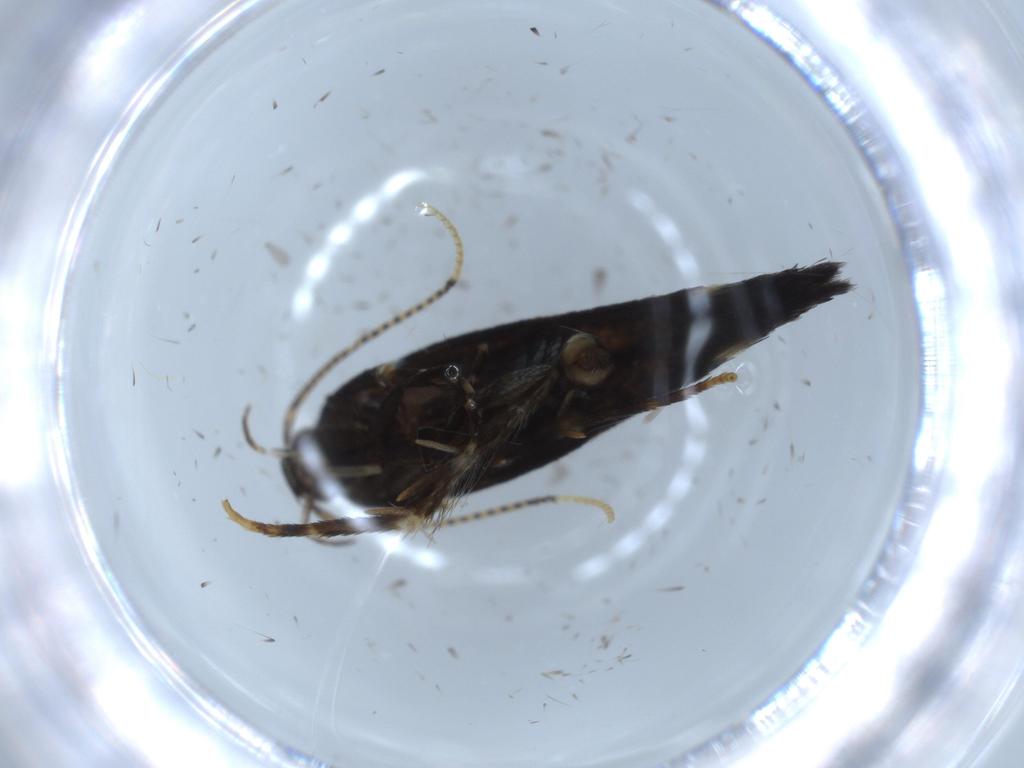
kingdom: Animalia
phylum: Arthropoda
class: Insecta
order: Lepidoptera
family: Cosmopterigidae
